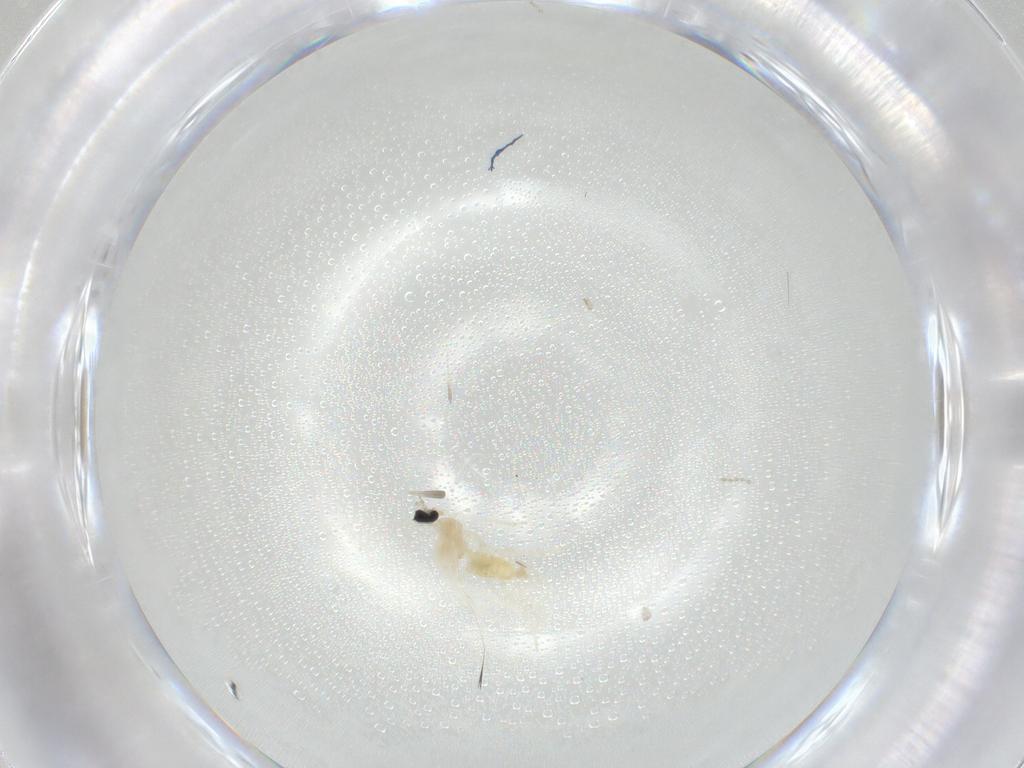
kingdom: Animalia
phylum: Arthropoda
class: Insecta
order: Diptera
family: Cecidomyiidae
